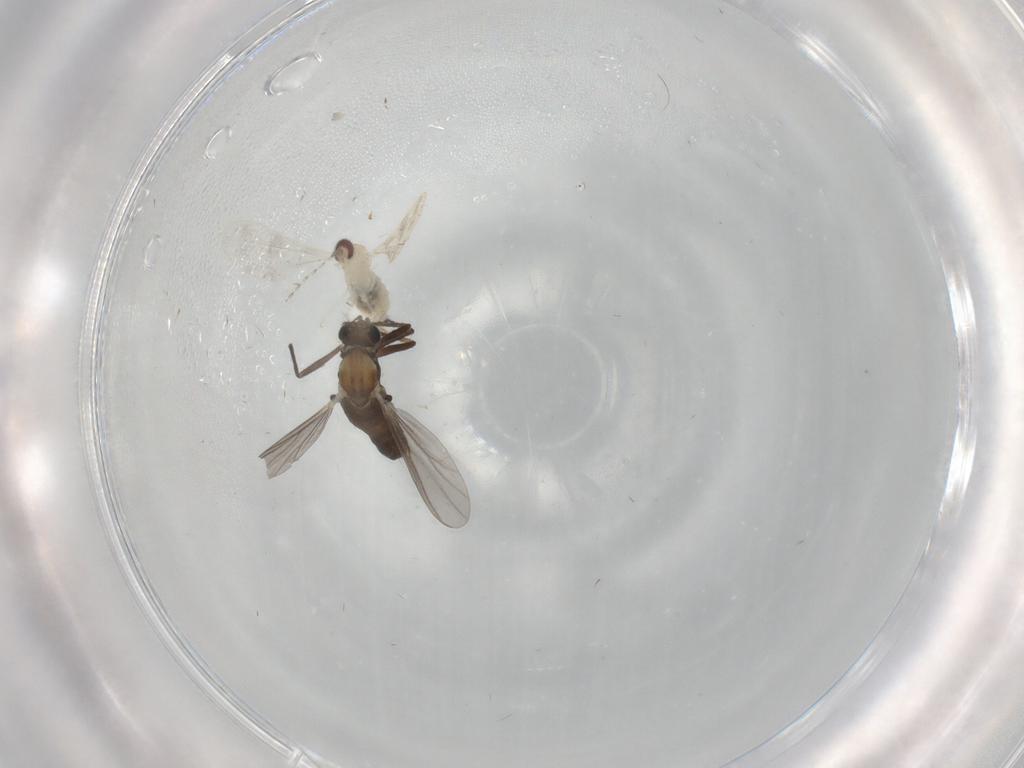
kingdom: Animalia
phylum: Arthropoda
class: Insecta
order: Diptera
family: Chironomidae
